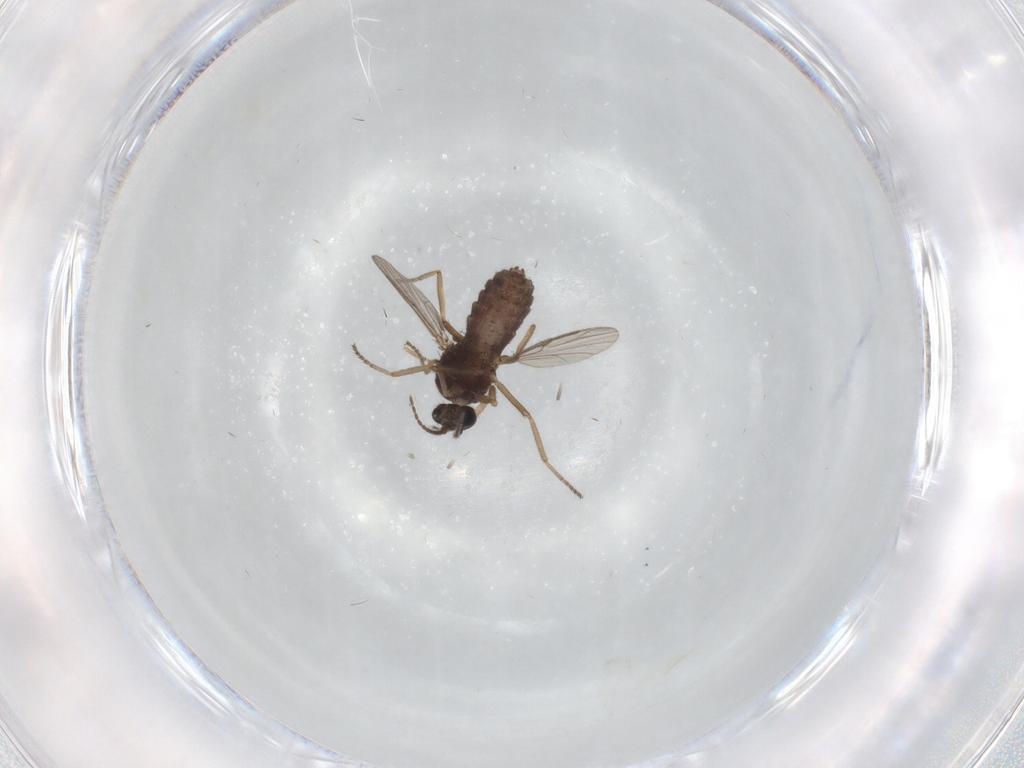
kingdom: Animalia
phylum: Arthropoda
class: Insecta
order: Diptera
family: Ceratopogonidae
